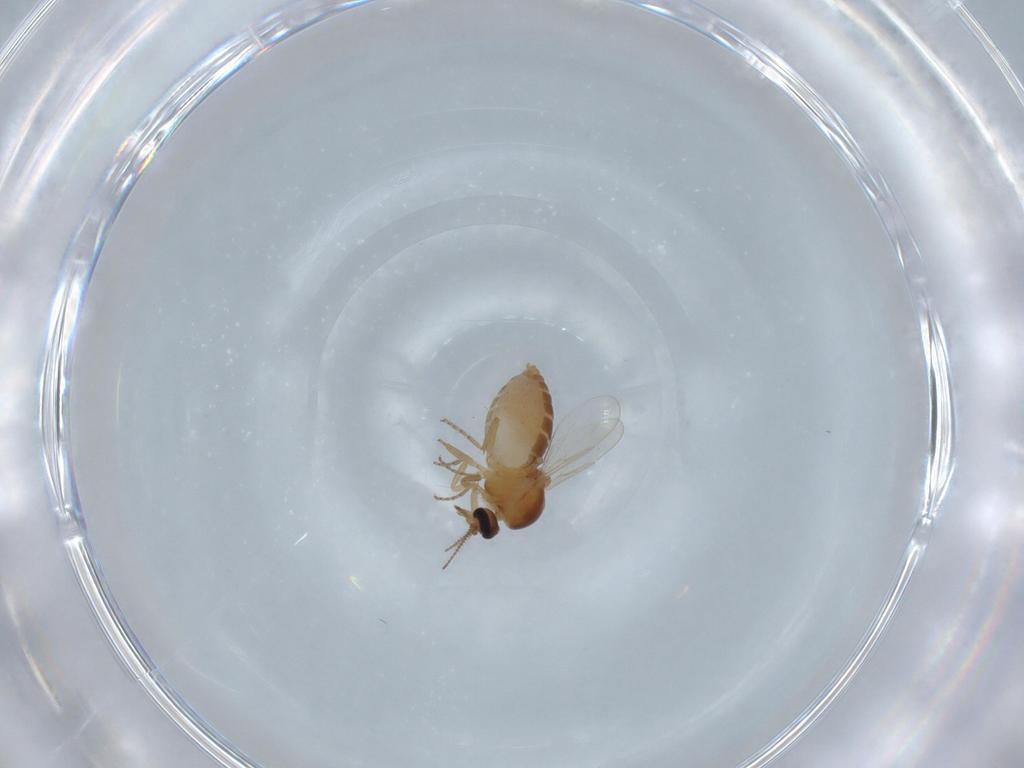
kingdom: Animalia
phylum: Arthropoda
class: Insecta
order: Diptera
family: Ceratopogonidae
